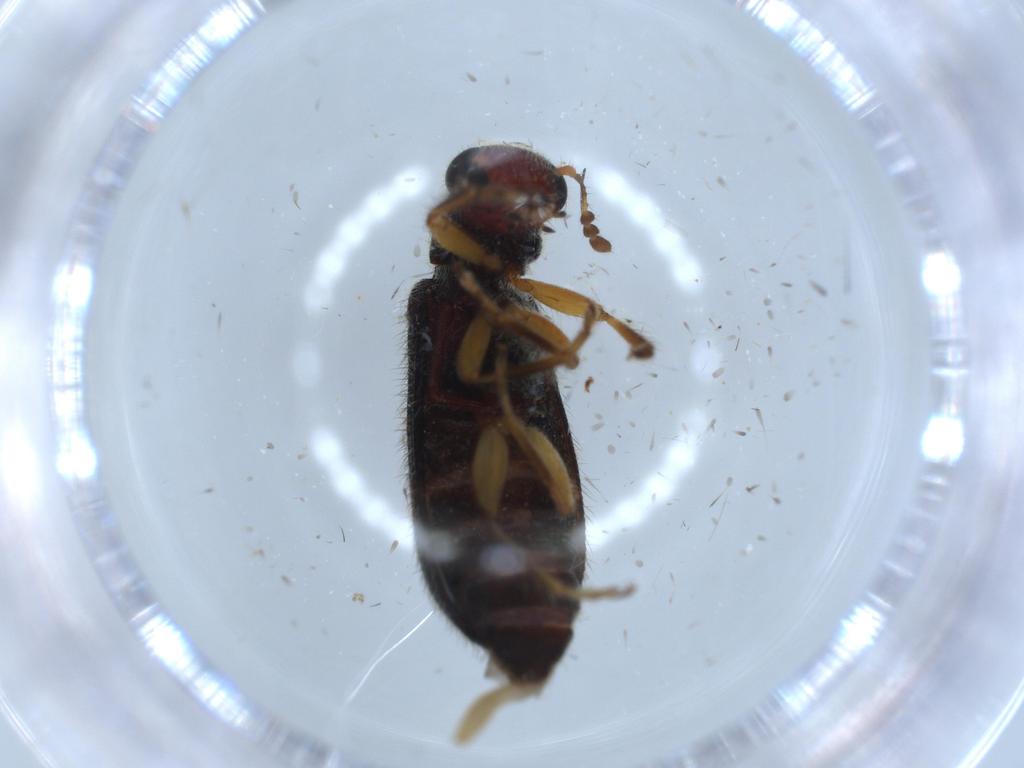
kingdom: Animalia
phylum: Arthropoda
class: Insecta
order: Coleoptera
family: Cleridae
